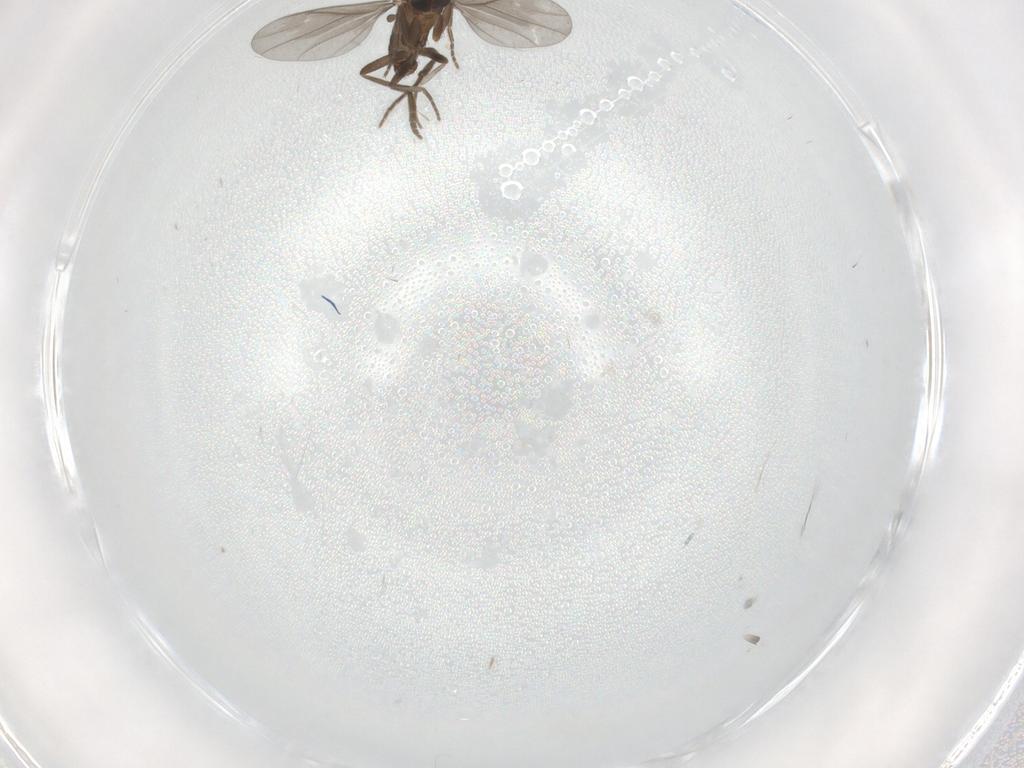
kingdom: Animalia
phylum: Arthropoda
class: Insecta
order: Diptera
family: Phoridae
